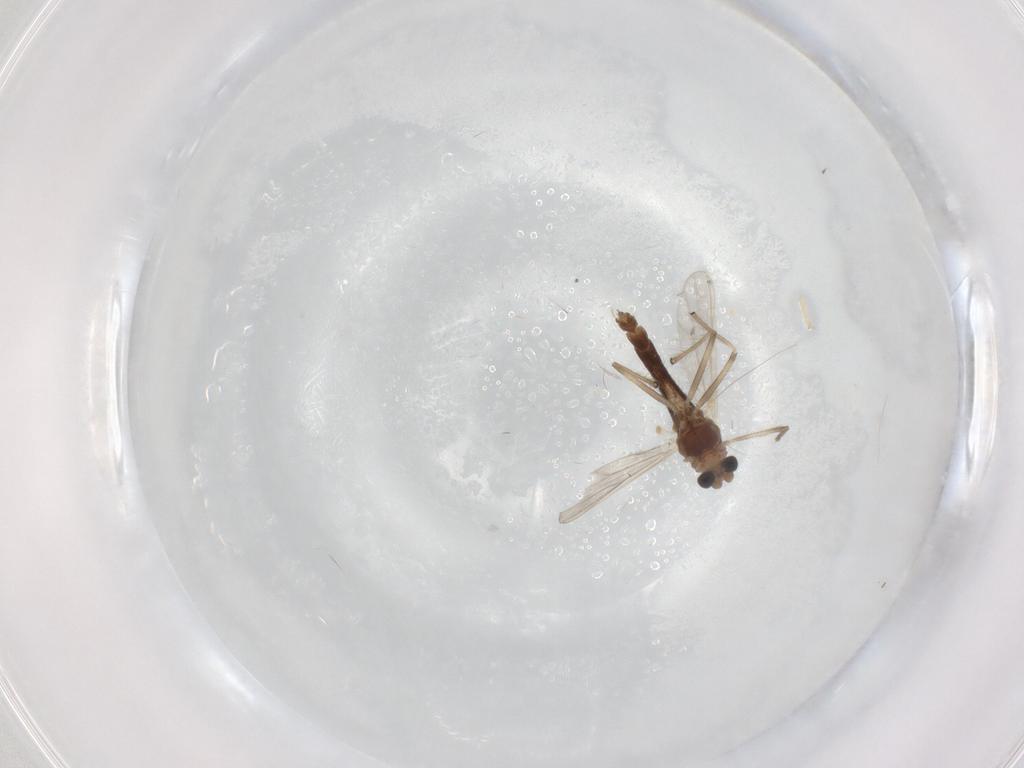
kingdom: Animalia
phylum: Arthropoda
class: Insecta
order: Diptera
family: Chironomidae
